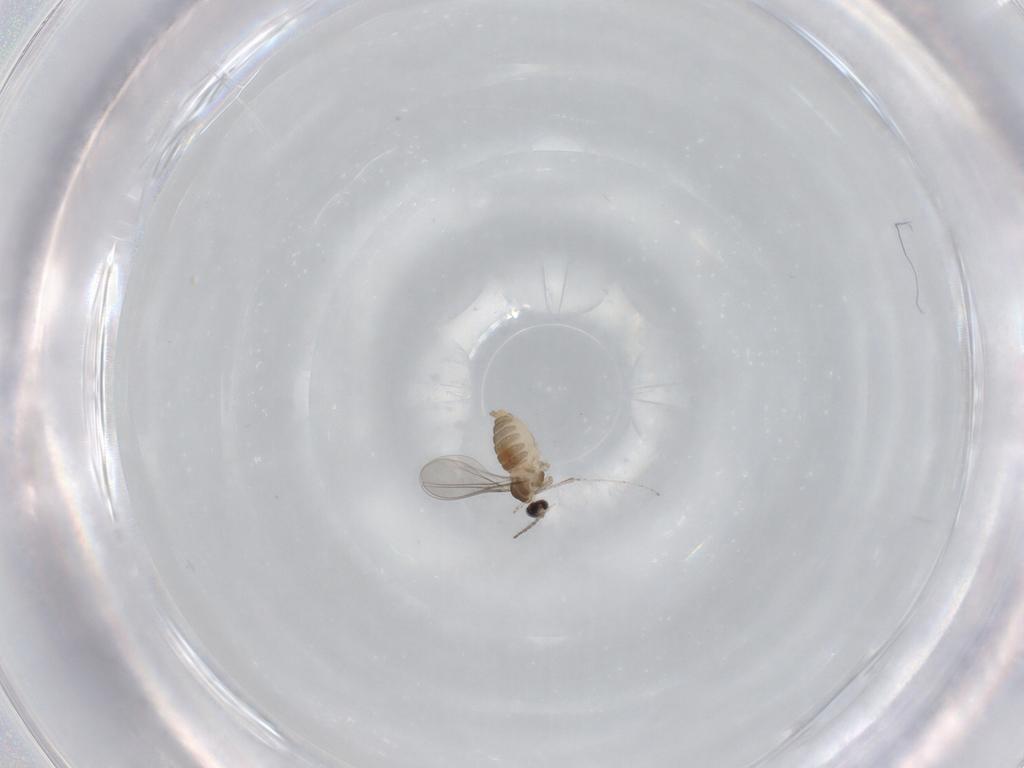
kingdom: Animalia
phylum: Arthropoda
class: Insecta
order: Diptera
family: Cecidomyiidae
